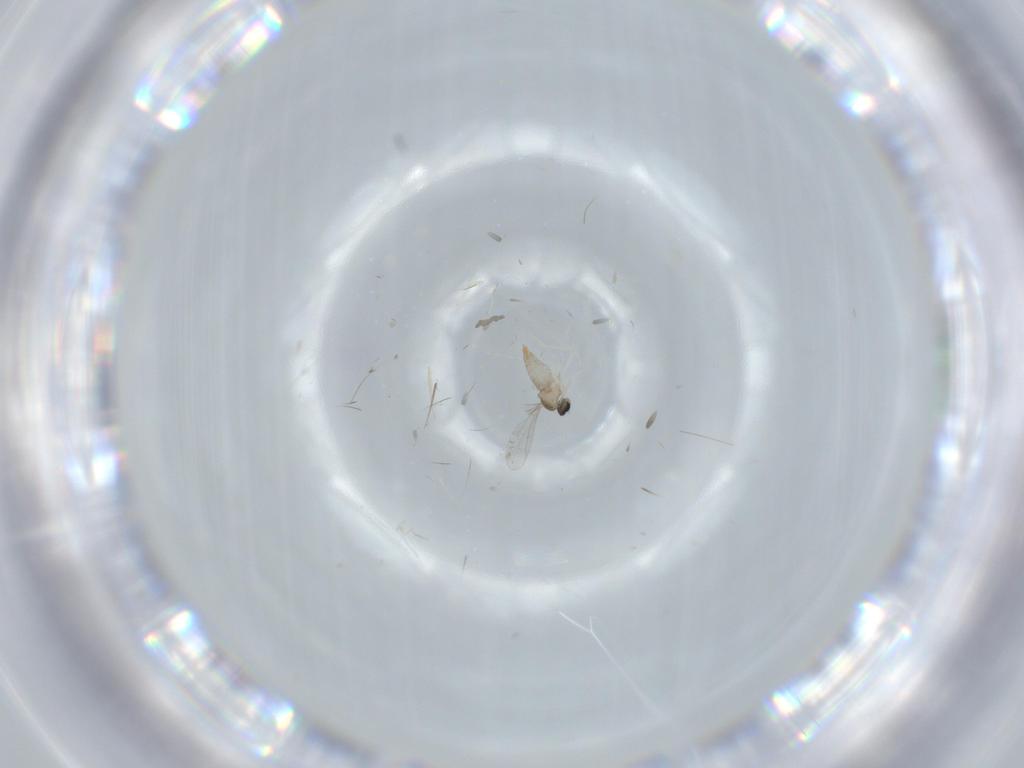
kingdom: Animalia
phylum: Arthropoda
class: Insecta
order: Diptera
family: Cecidomyiidae
